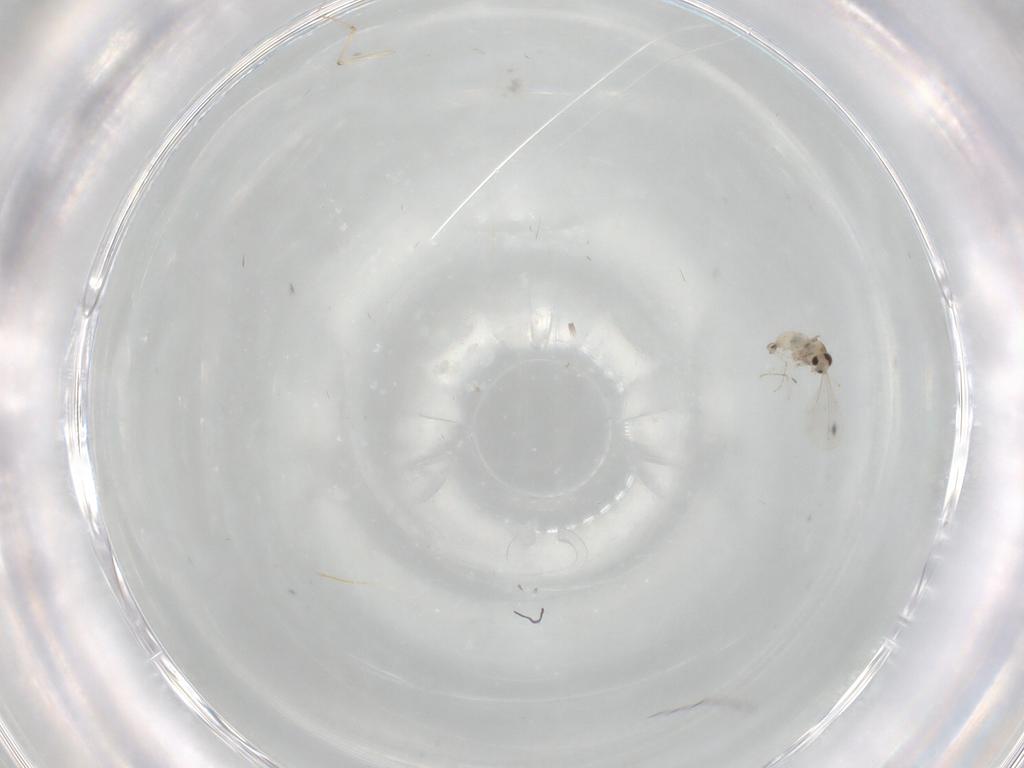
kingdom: Animalia
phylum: Arthropoda
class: Insecta
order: Diptera
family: Cecidomyiidae
